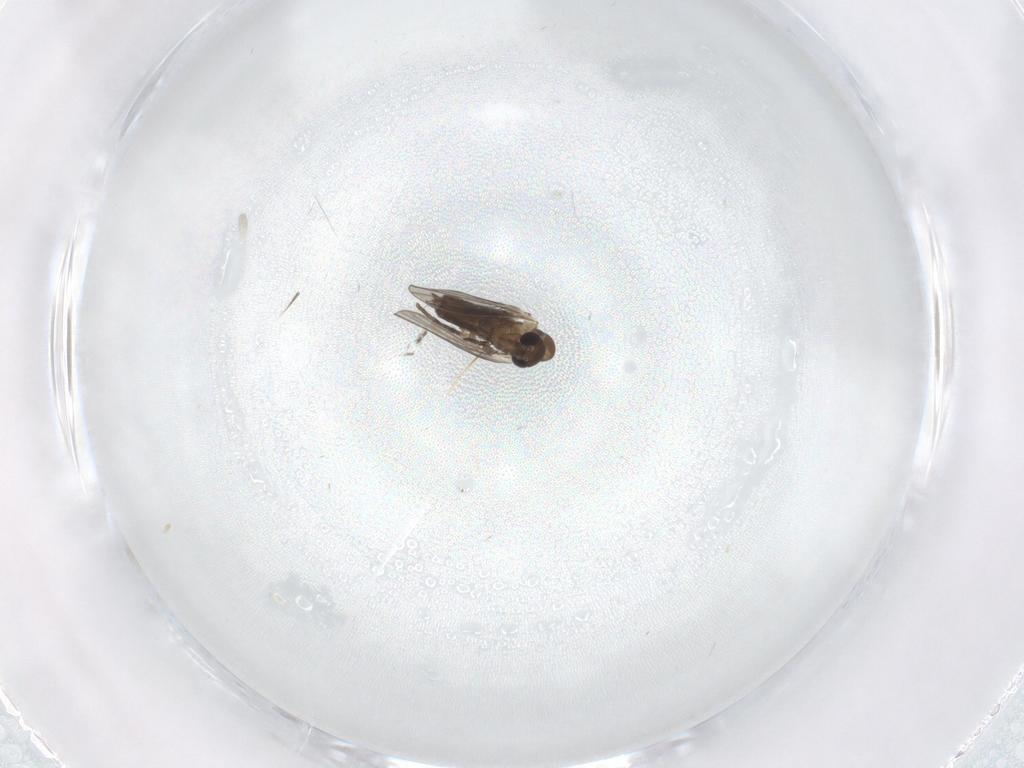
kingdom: Animalia
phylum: Arthropoda
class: Insecta
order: Diptera
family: Sciaridae
